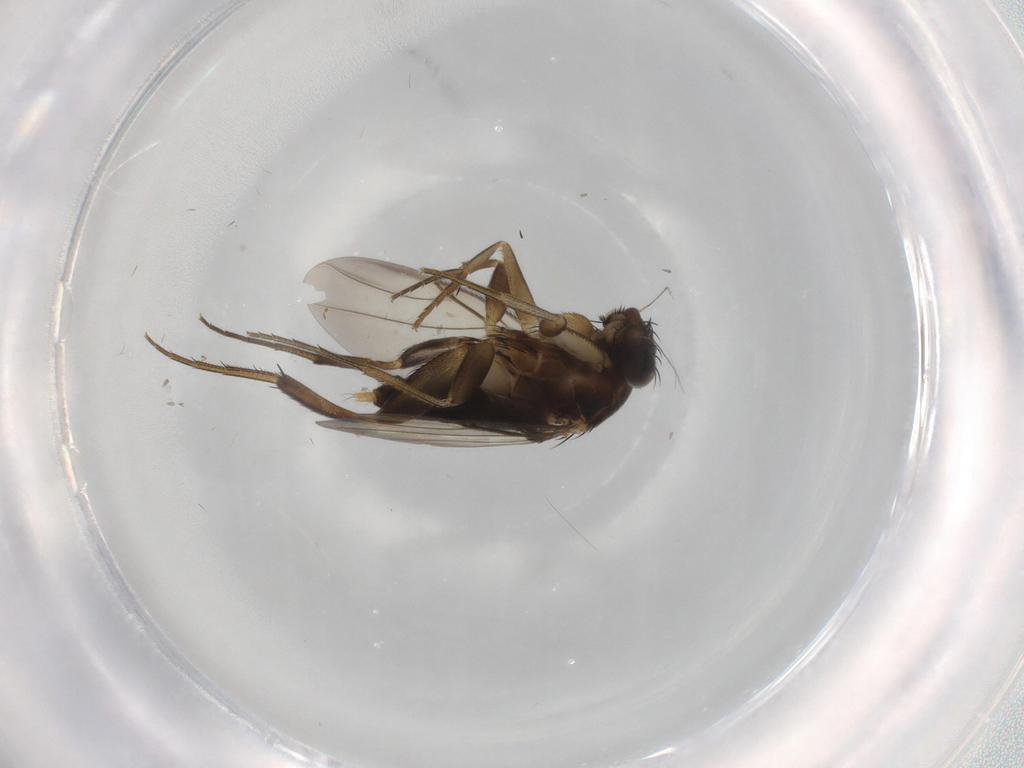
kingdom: Animalia
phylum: Arthropoda
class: Insecta
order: Diptera
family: Phoridae
